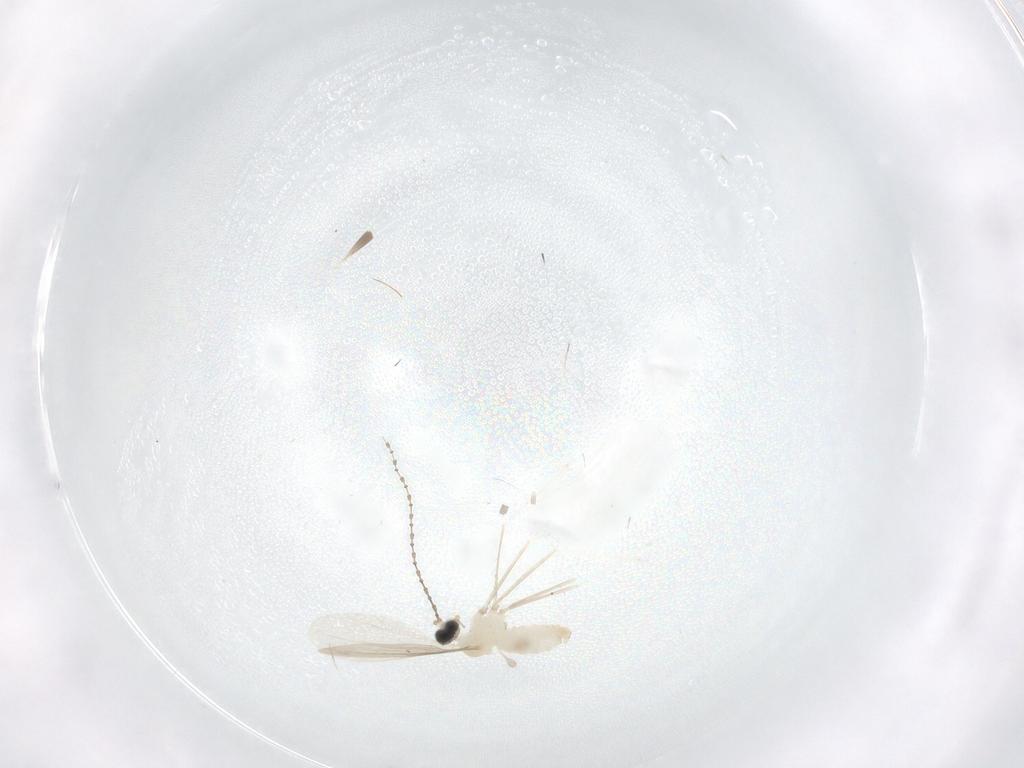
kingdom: Animalia
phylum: Arthropoda
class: Insecta
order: Diptera
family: Cecidomyiidae
